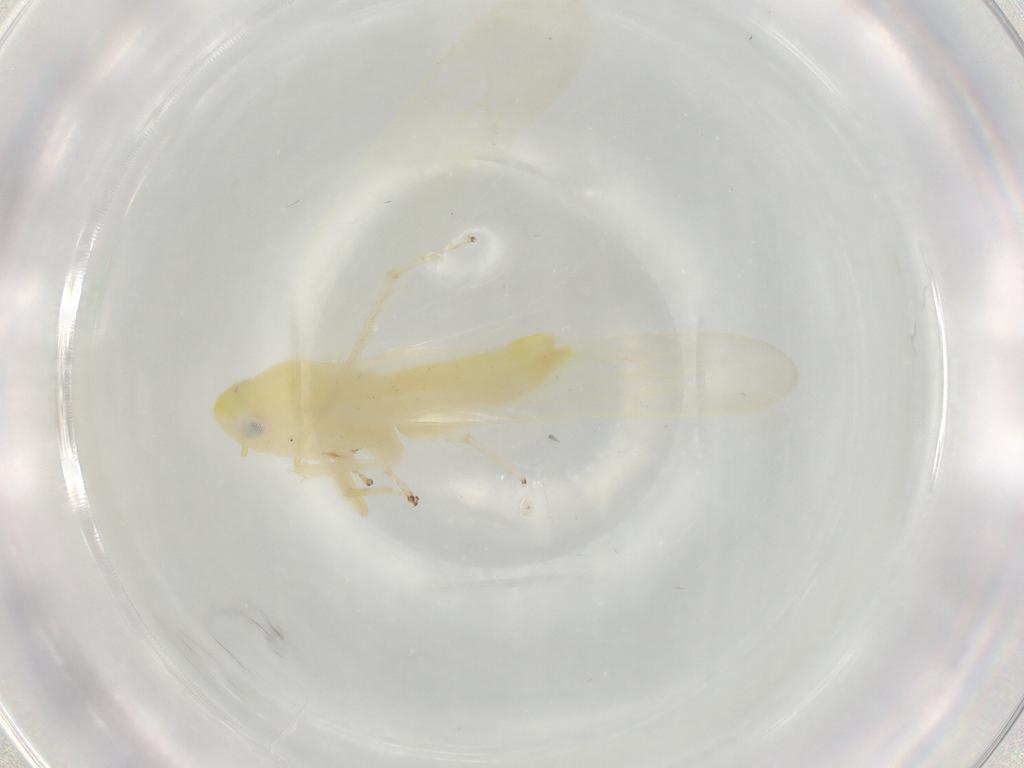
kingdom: Animalia
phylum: Arthropoda
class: Insecta
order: Hemiptera
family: Cicadellidae
